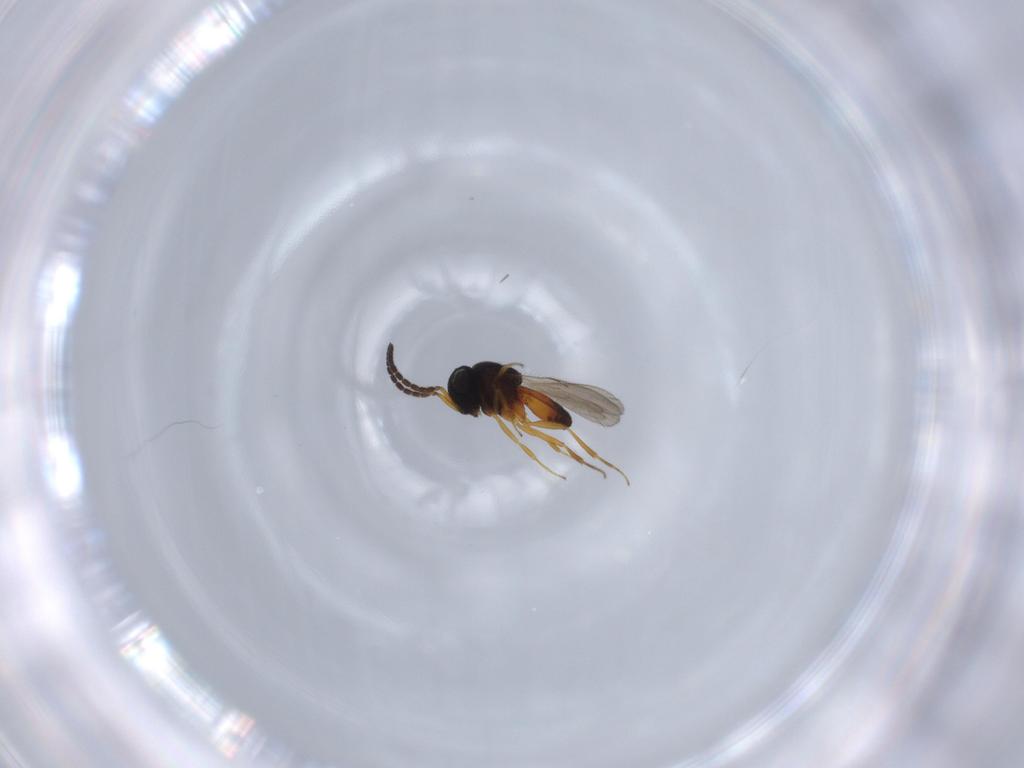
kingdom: Animalia
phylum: Arthropoda
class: Insecta
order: Hymenoptera
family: Scelionidae
